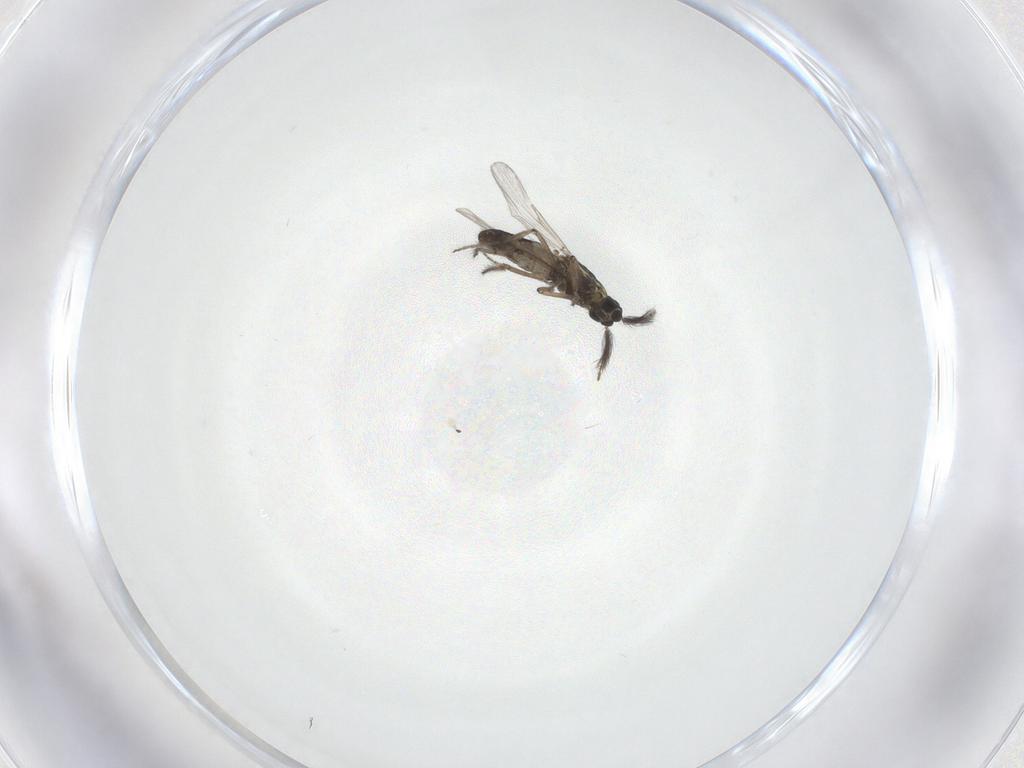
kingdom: Animalia
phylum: Arthropoda
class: Insecta
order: Diptera
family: Ceratopogonidae
